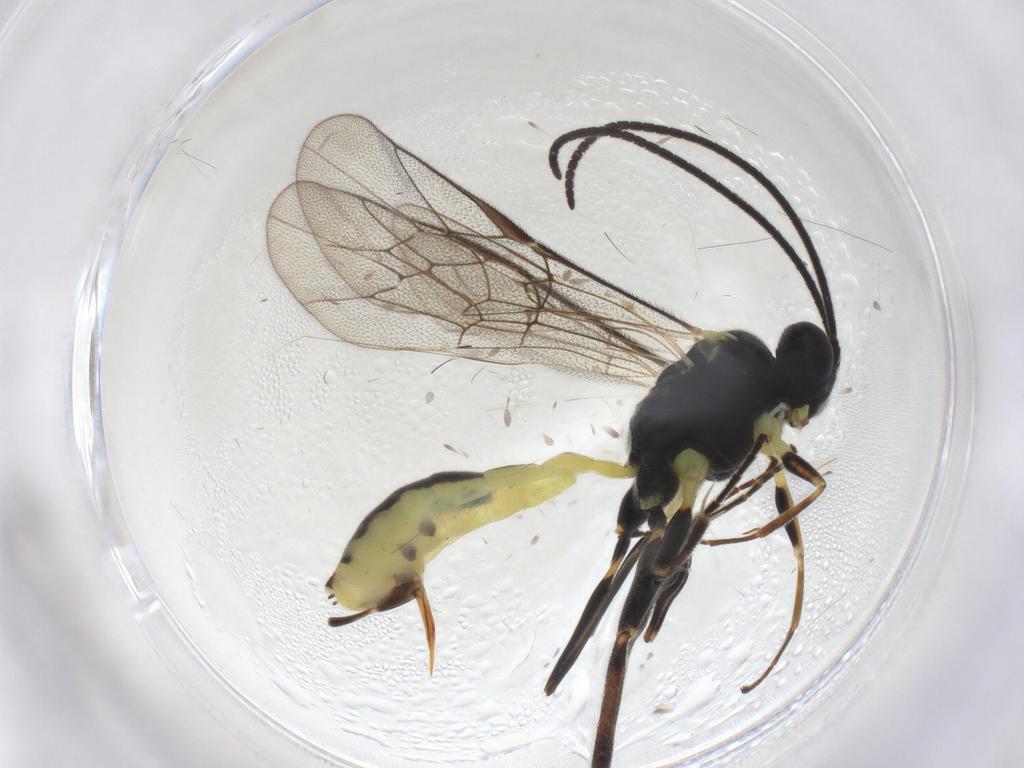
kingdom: Animalia
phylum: Arthropoda
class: Insecta
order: Hymenoptera
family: Ichneumonidae
